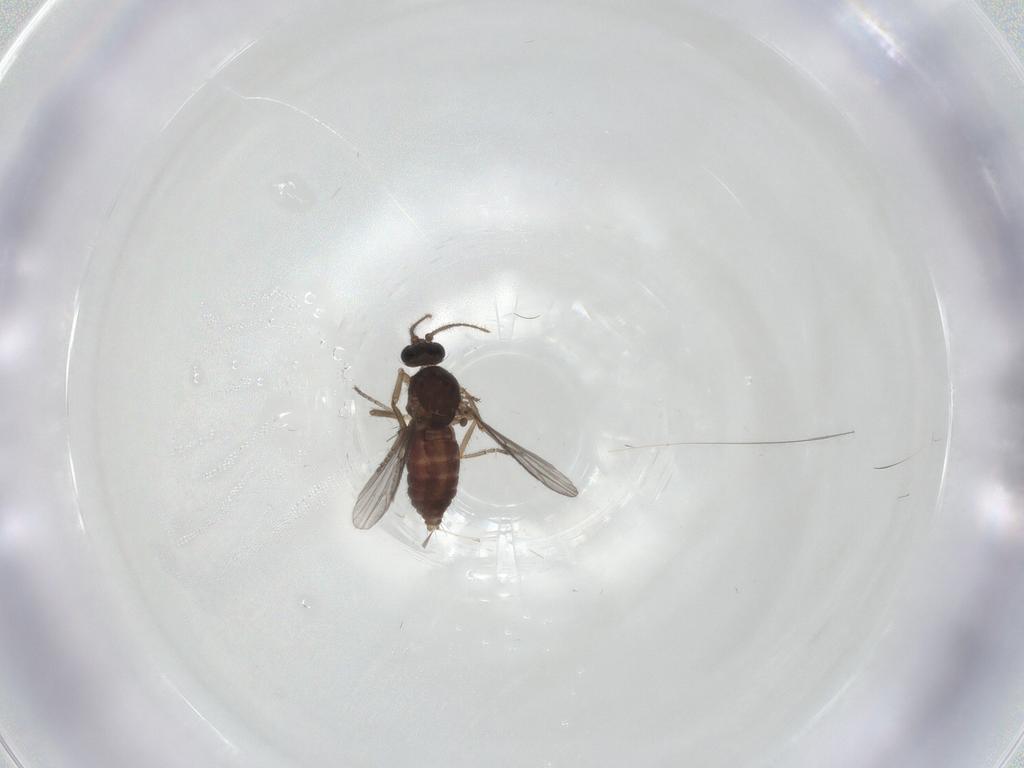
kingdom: Animalia
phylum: Arthropoda
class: Insecta
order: Diptera
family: Ceratopogonidae
